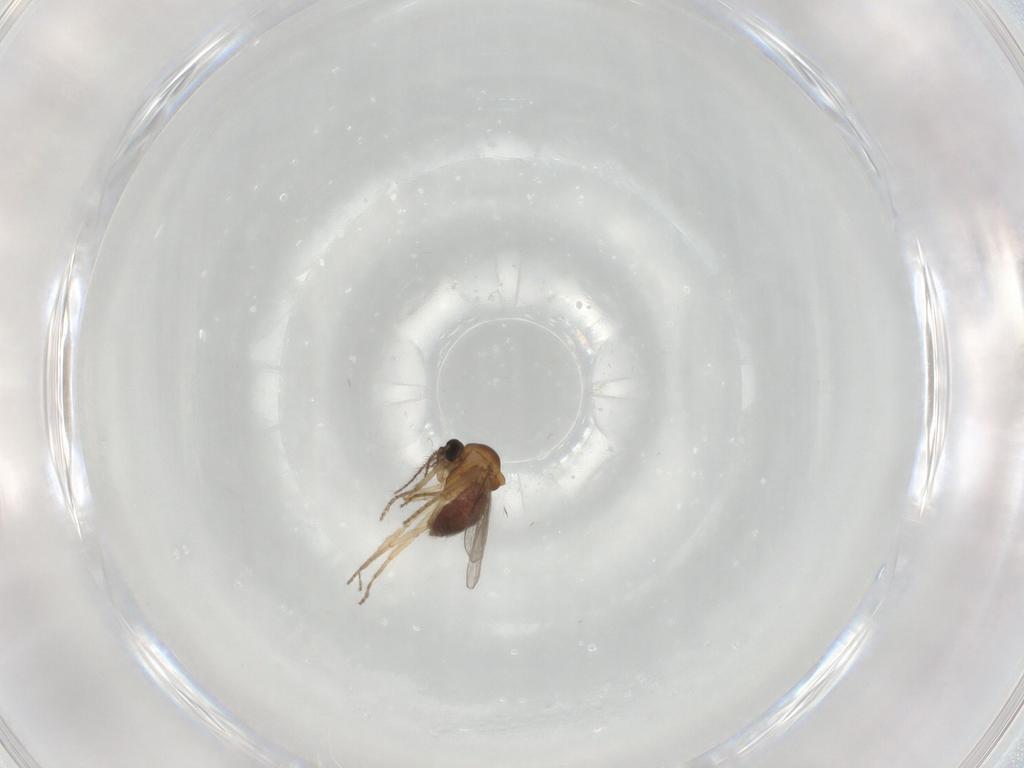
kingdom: Animalia
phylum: Arthropoda
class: Insecta
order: Diptera
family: Ceratopogonidae
